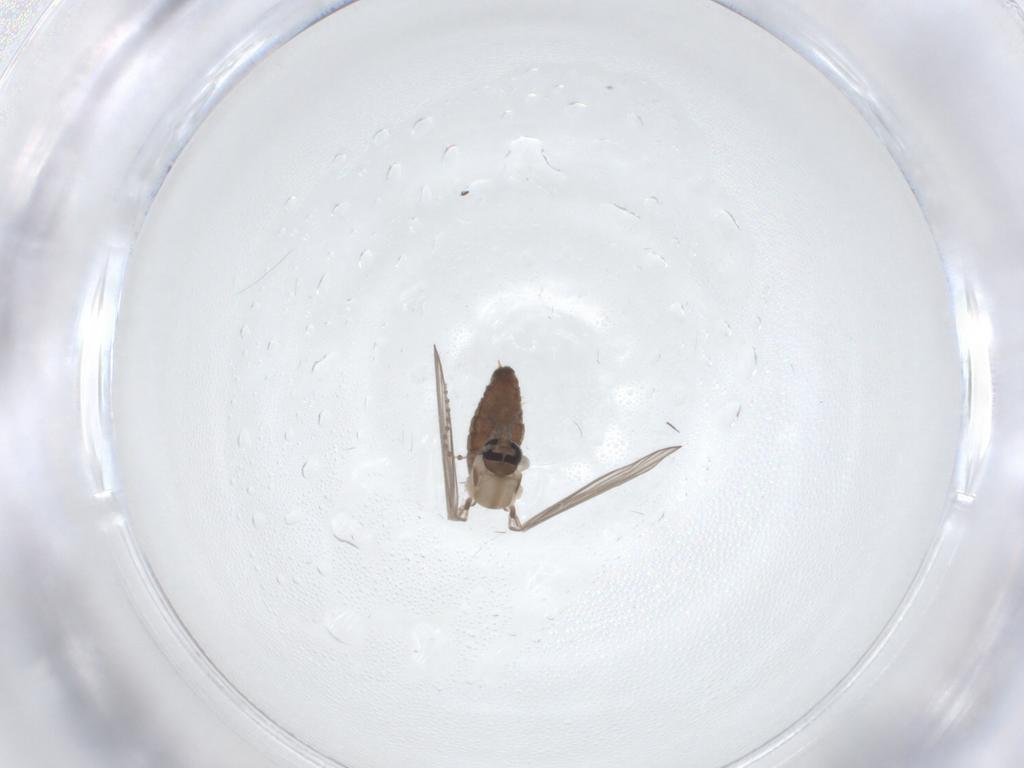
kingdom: Animalia
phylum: Arthropoda
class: Insecta
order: Diptera
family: Psychodidae
